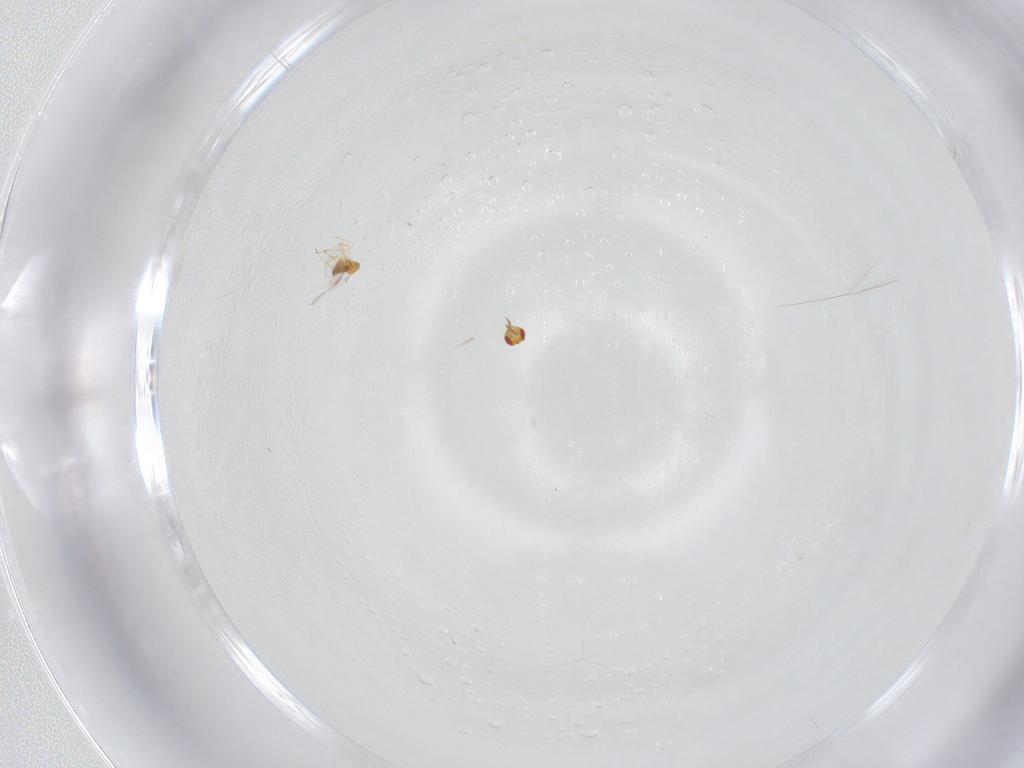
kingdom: Animalia
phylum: Arthropoda
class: Insecta
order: Hymenoptera
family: Trichogrammatidae
